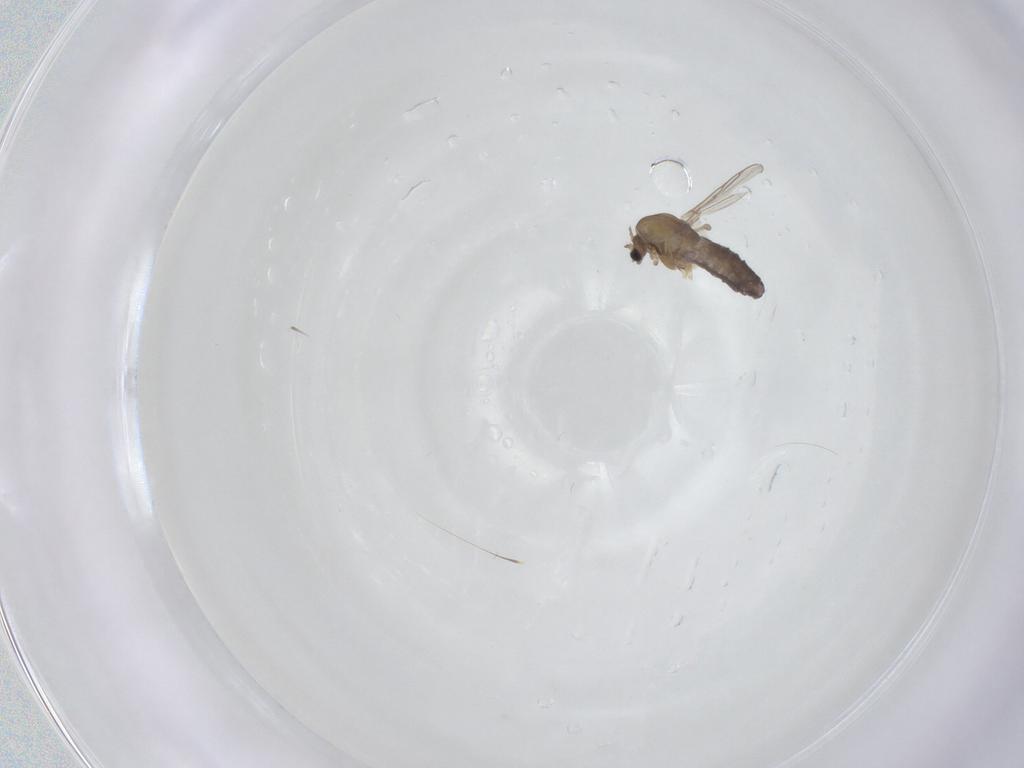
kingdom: Animalia
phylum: Arthropoda
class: Insecta
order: Diptera
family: Chironomidae
